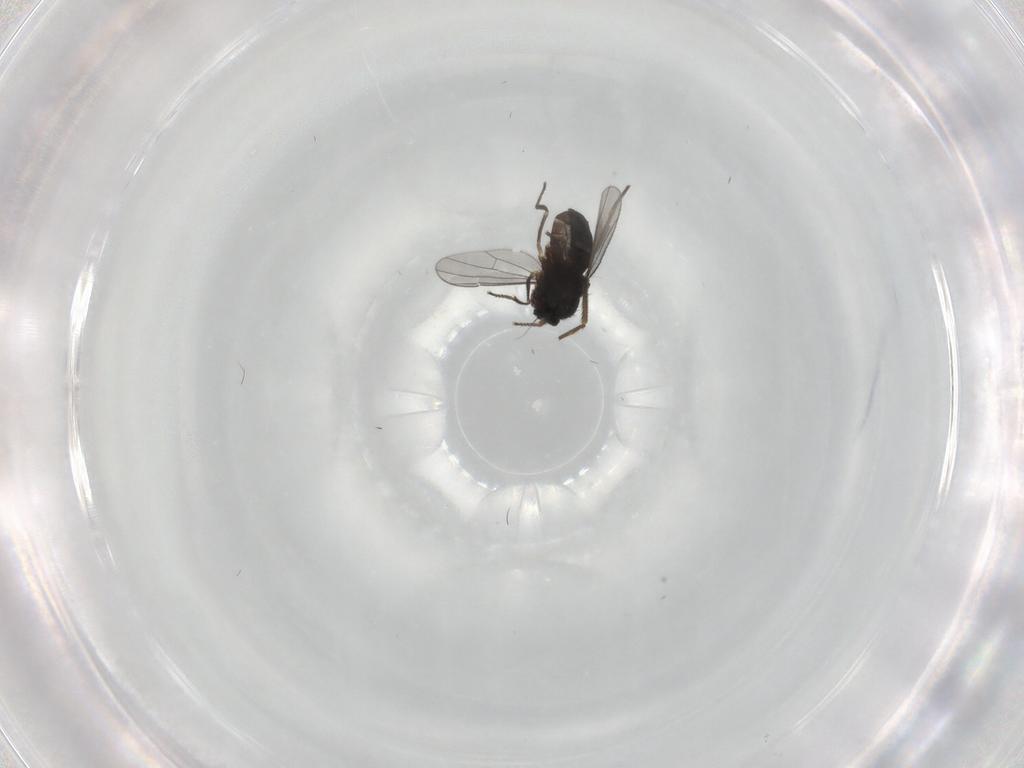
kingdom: Animalia
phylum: Arthropoda
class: Insecta
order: Diptera
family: Dolichopodidae
